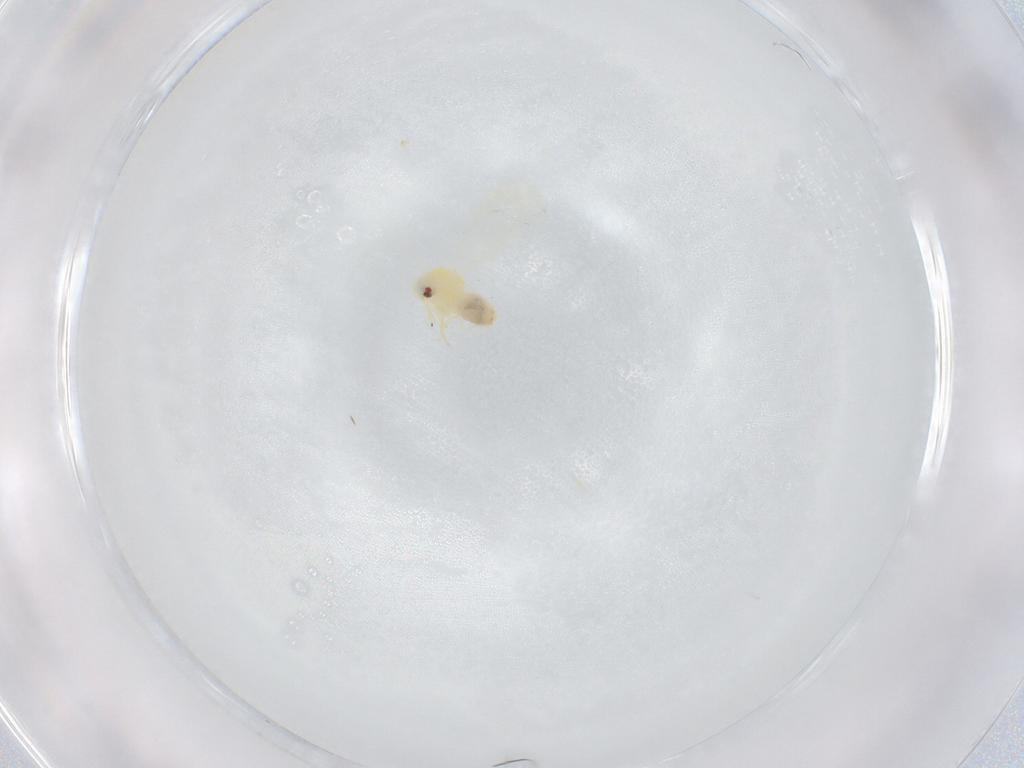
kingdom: Animalia
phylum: Arthropoda
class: Insecta
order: Hemiptera
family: Aleyrodidae
